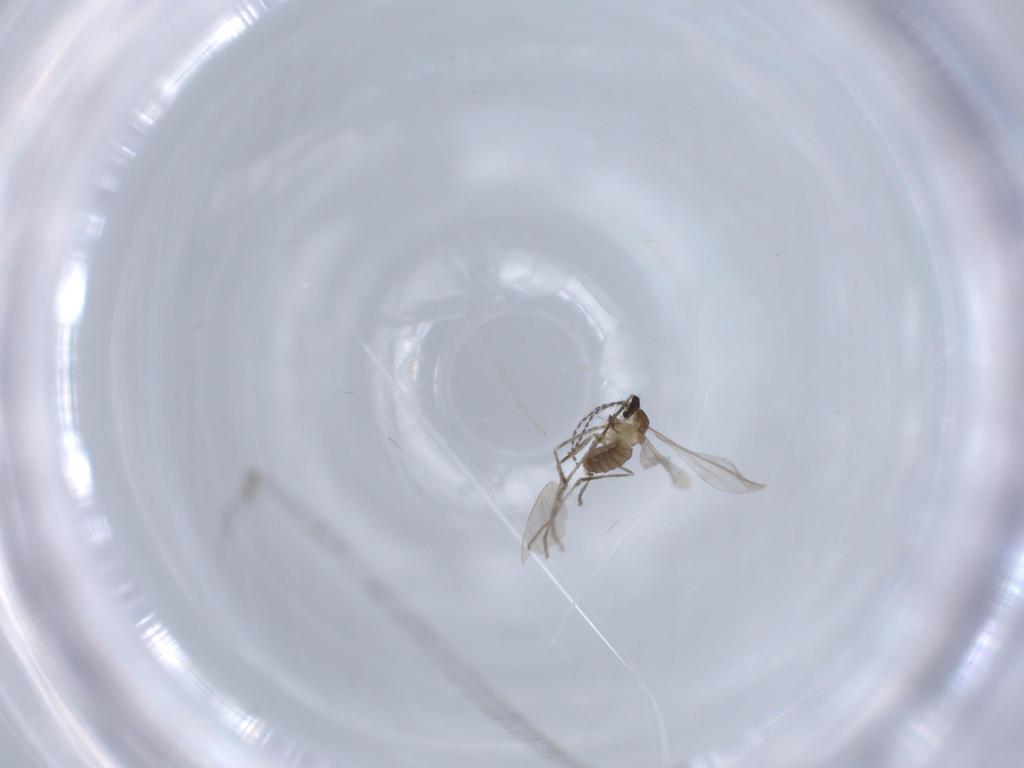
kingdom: Animalia
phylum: Arthropoda
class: Insecta
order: Diptera
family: Cecidomyiidae
